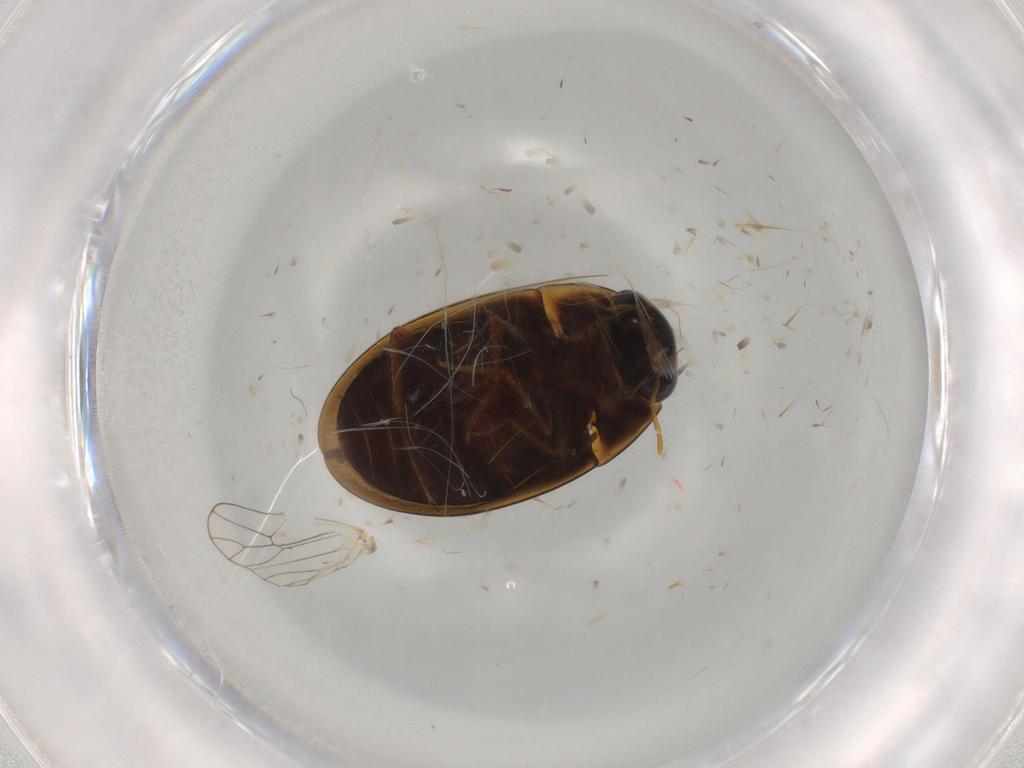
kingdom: Animalia
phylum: Arthropoda
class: Insecta
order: Coleoptera
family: Hydrophilidae
